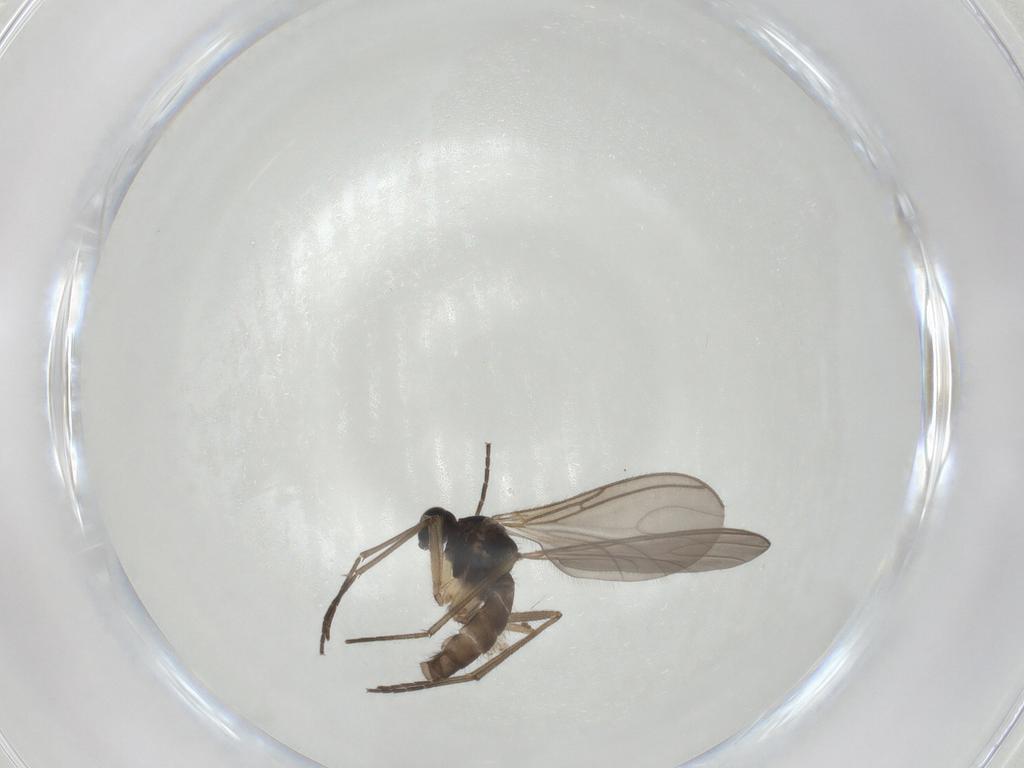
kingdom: Animalia
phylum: Arthropoda
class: Insecta
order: Diptera
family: Sciaridae
